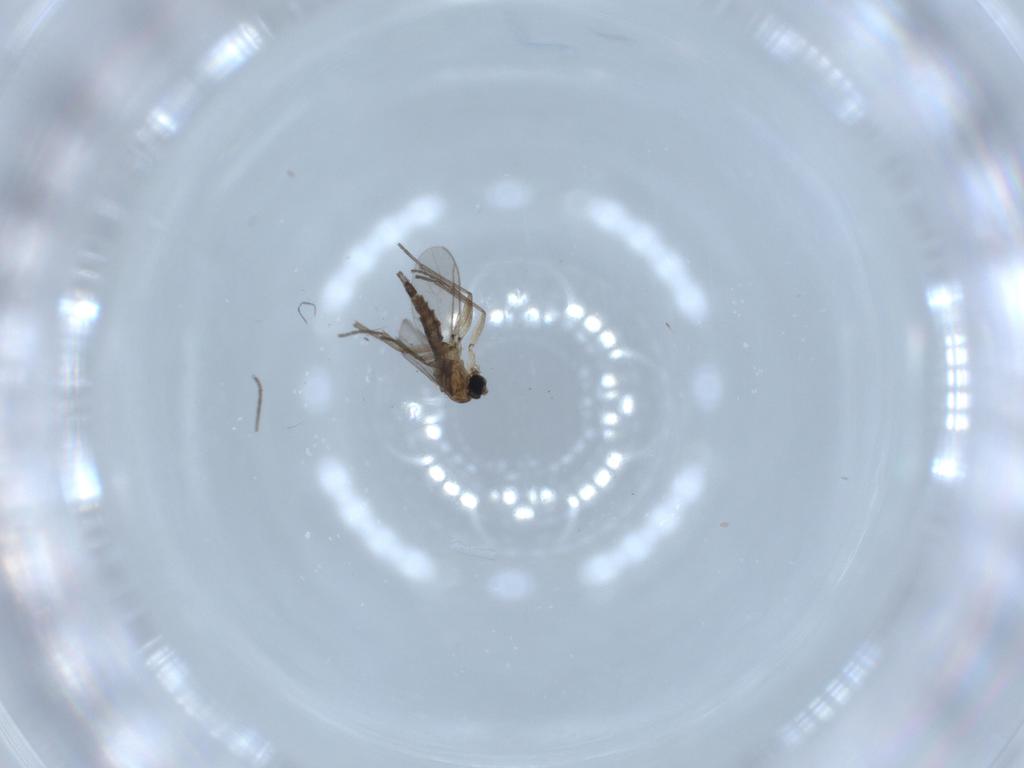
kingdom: Animalia
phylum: Arthropoda
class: Insecta
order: Diptera
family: Sciaridae
